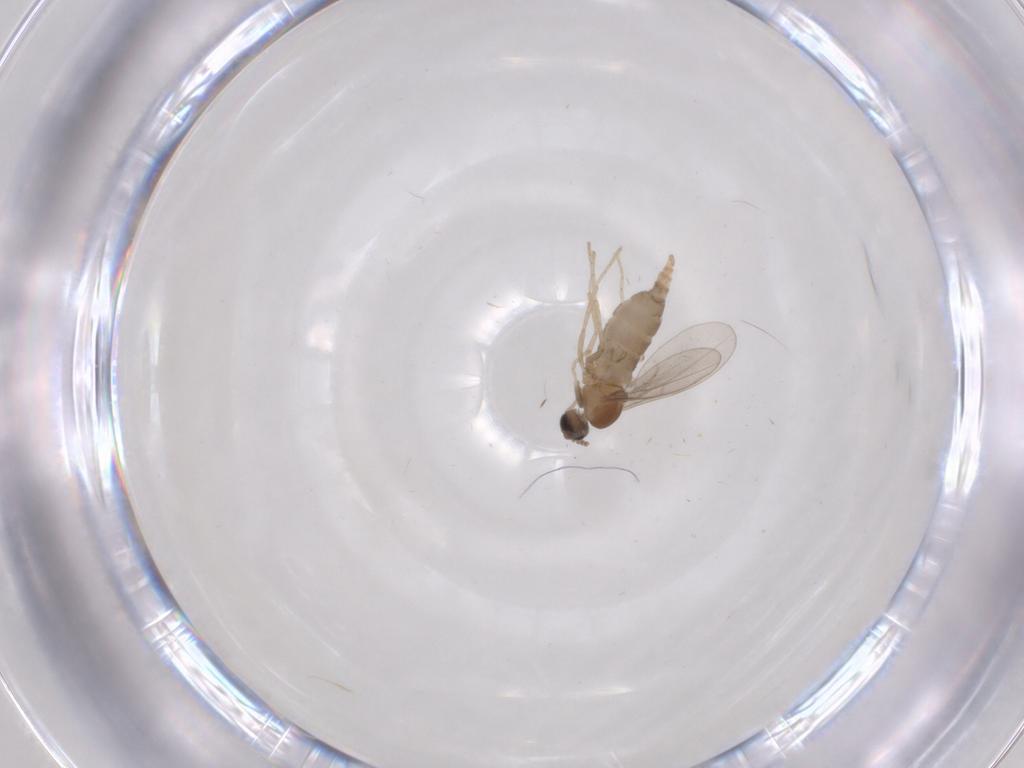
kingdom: Animalia
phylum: Arthropoda
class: Insecta
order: Diptera
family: Cecidomyiidae
